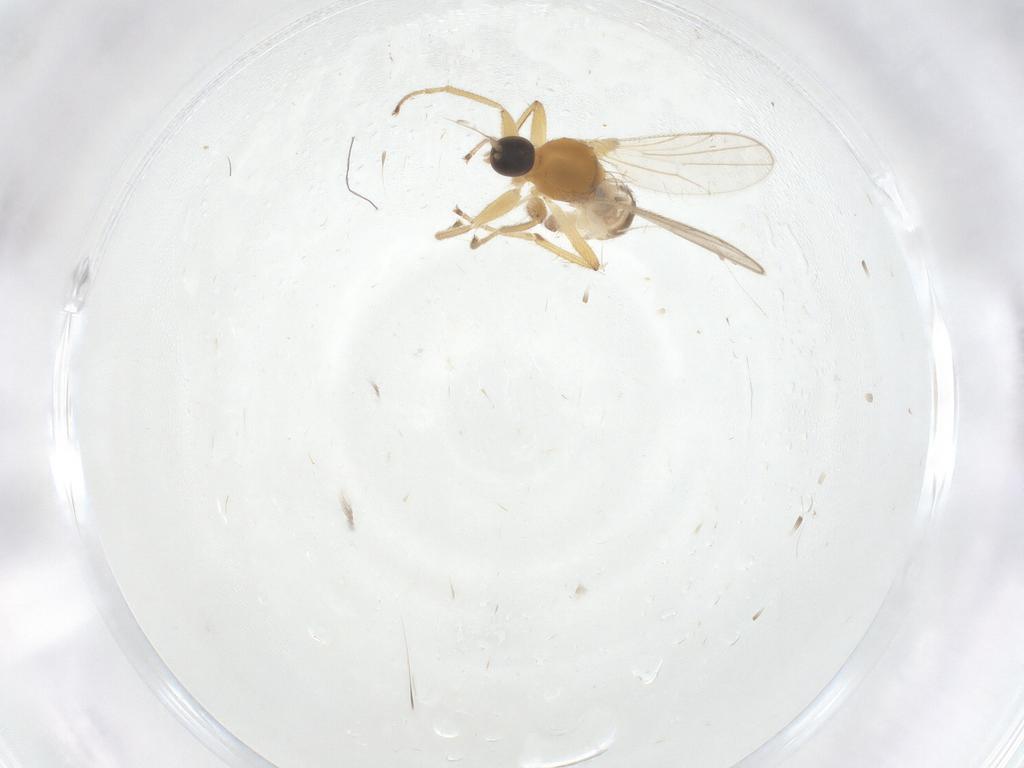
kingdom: Animalia
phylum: Arthropoda
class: Insecta
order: Diptera
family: Hybotidae
